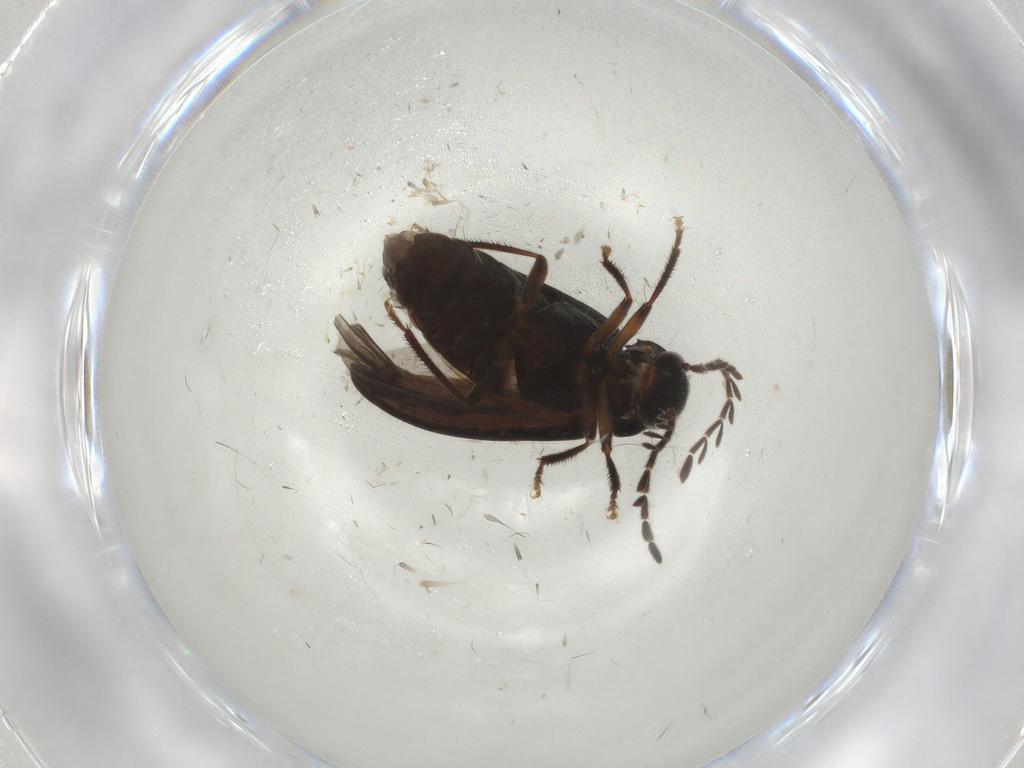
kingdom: Animalia
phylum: Arthropoda
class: Insecta
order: Coleoptera
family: Ptilodactylidae
